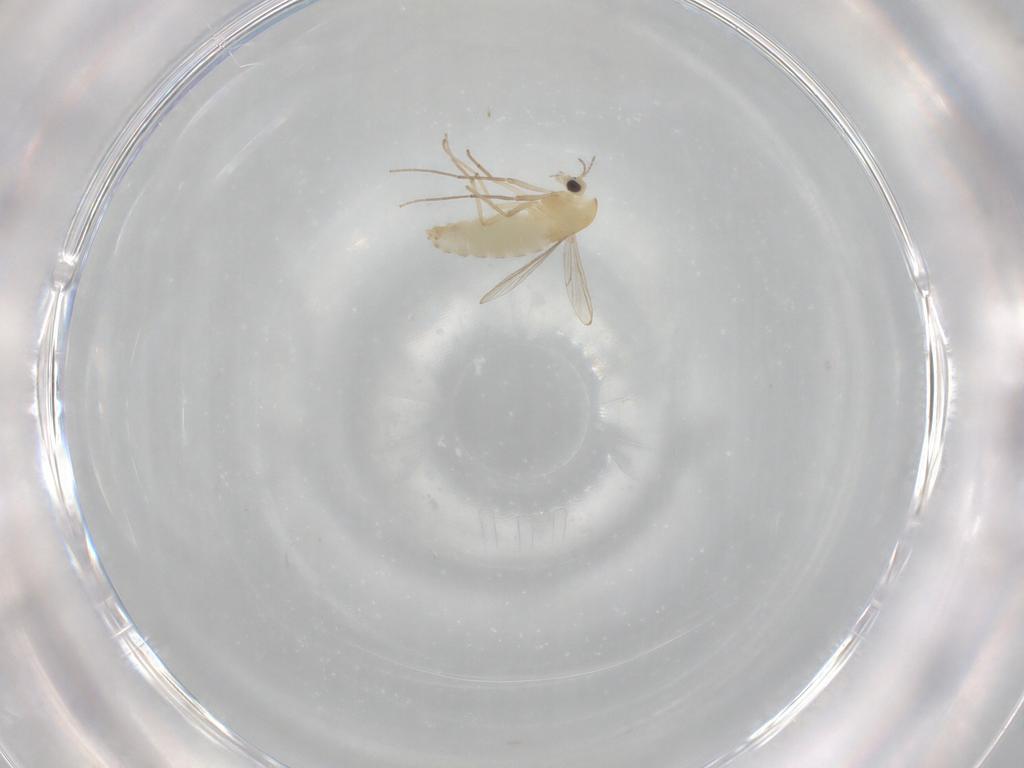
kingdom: Animalia
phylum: Arthropoda
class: Insecta
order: Diptera
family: Chironomidae
